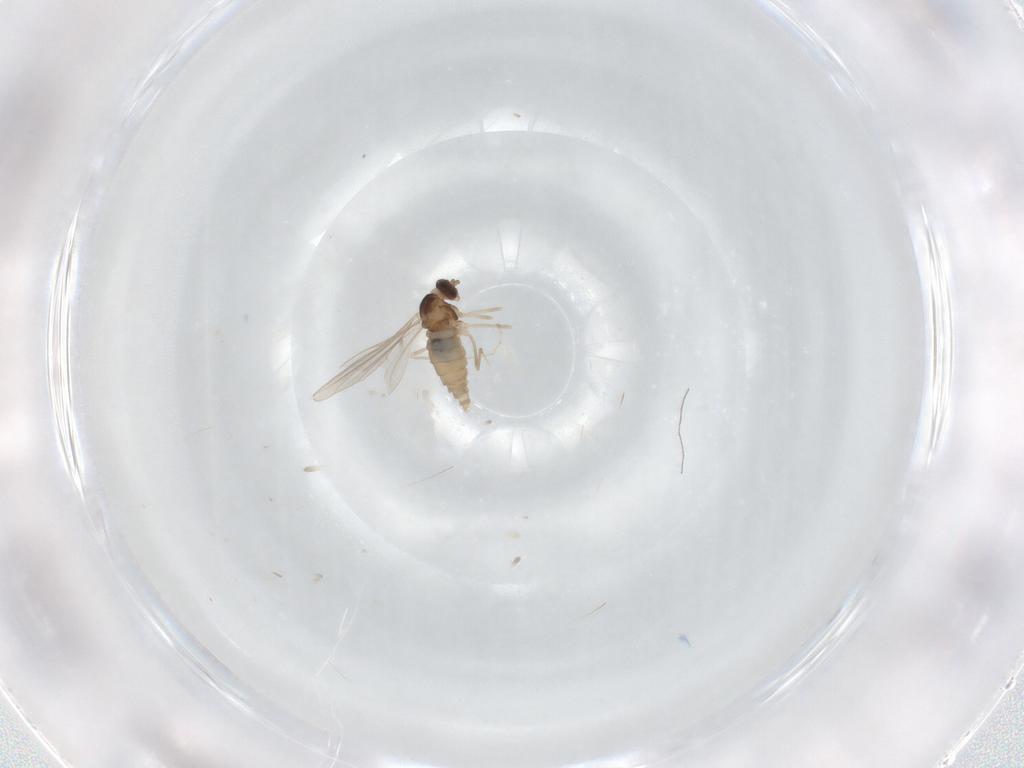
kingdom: Animalia
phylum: Arthropoda
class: Insecta
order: Diptera
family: Cecidomyiidae
